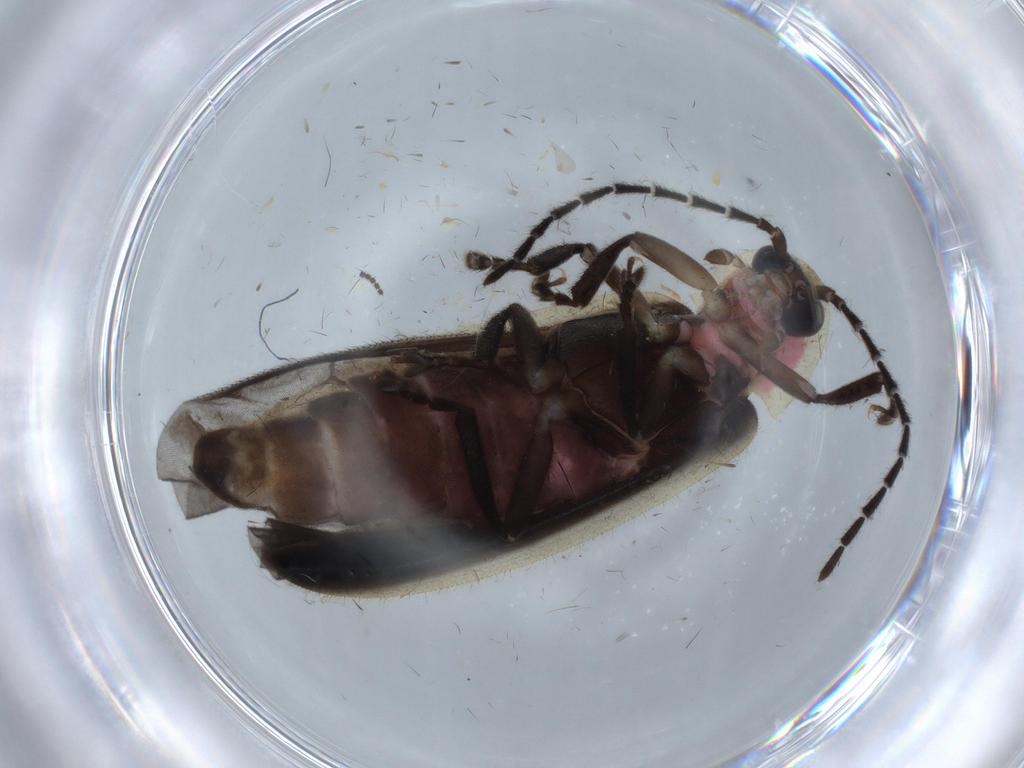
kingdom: Animalia
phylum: Arthropoda
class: Insecta
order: Coleoptera
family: Lampyridae
